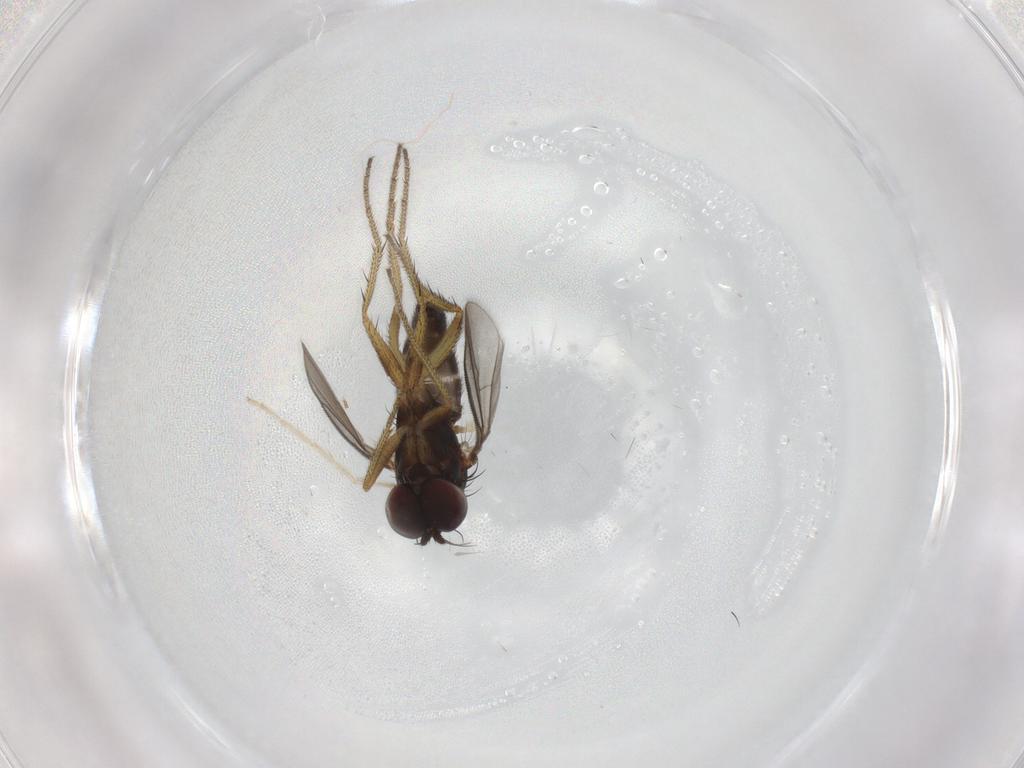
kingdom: Animalia
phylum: Arthropoda
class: Insecta
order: Diptera
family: Chironomidae
